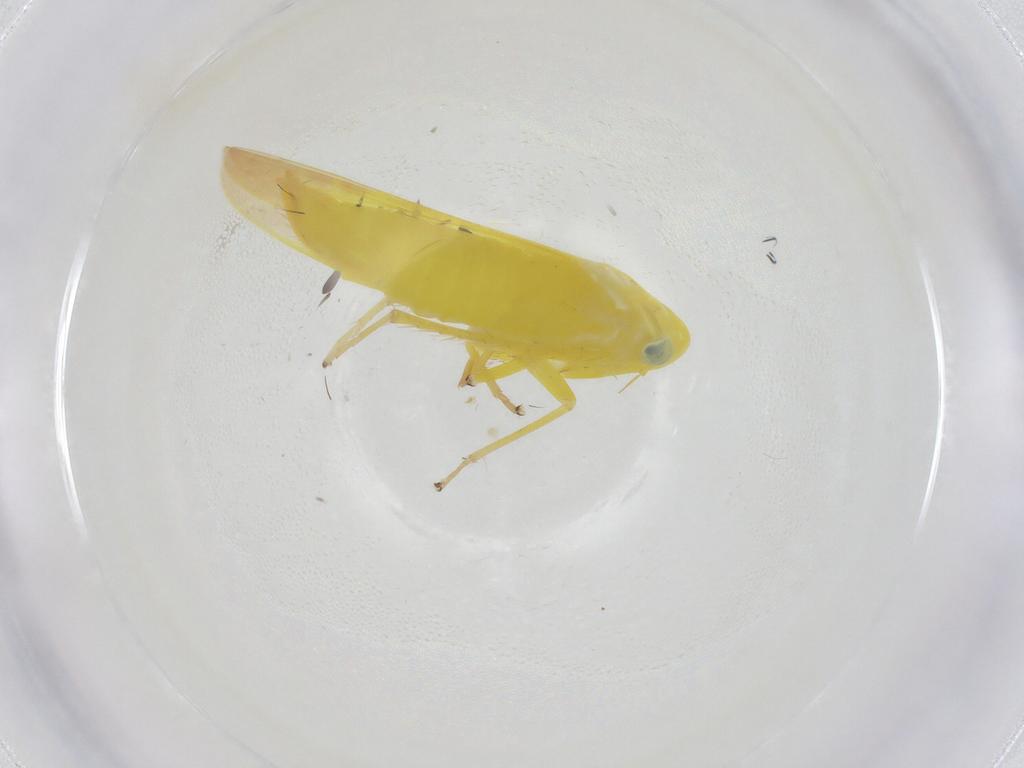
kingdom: Animalia
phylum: Arthropoda
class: Insecta
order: Hemiptera
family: Cicadellidae
